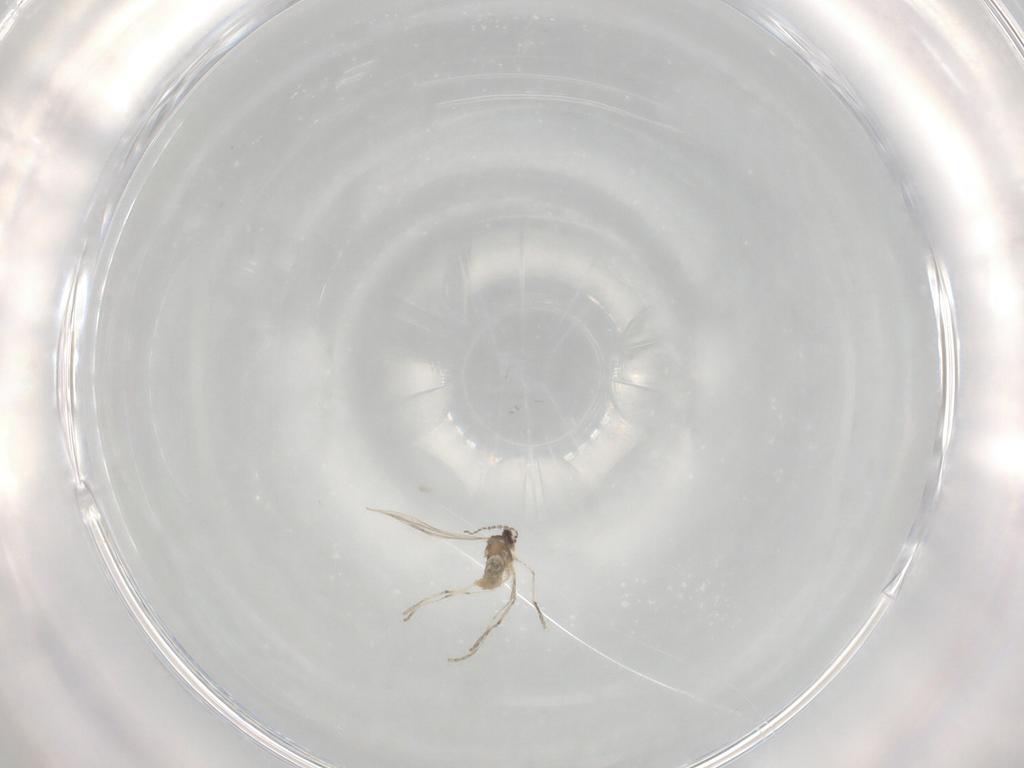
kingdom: Animalia
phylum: Arthropoda
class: Insecta
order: Diptera
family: Cecidomyiidae
